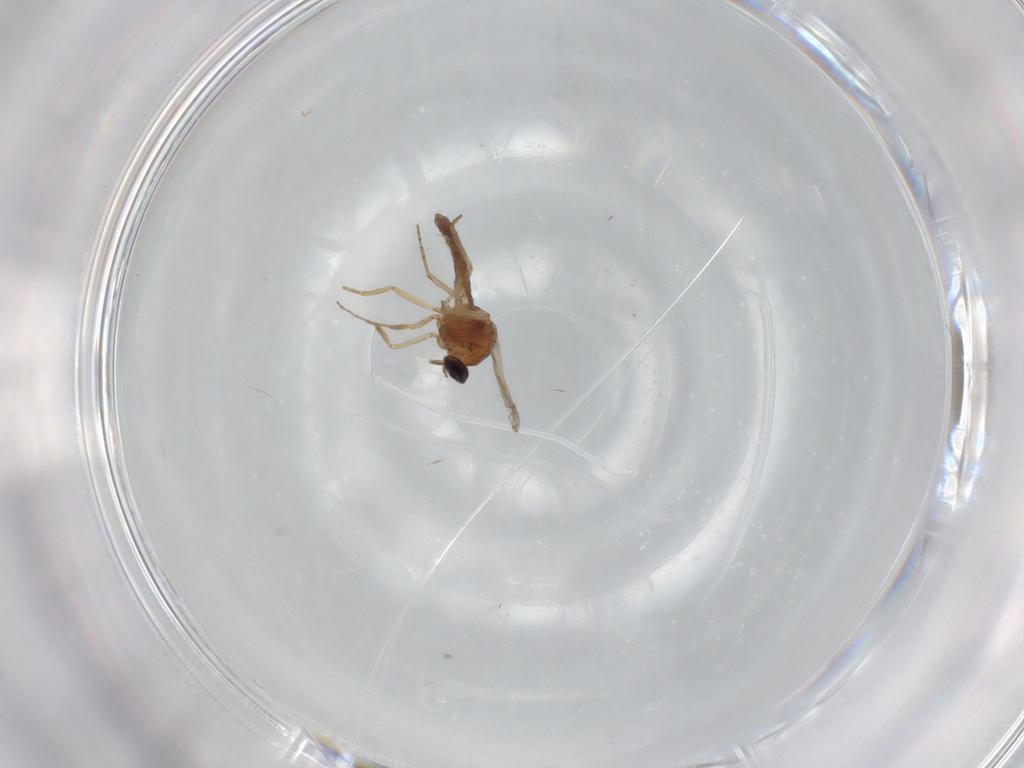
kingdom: Animalia
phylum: Arthropoda
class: Insecta
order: Diptera
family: Ceratopogonidae
